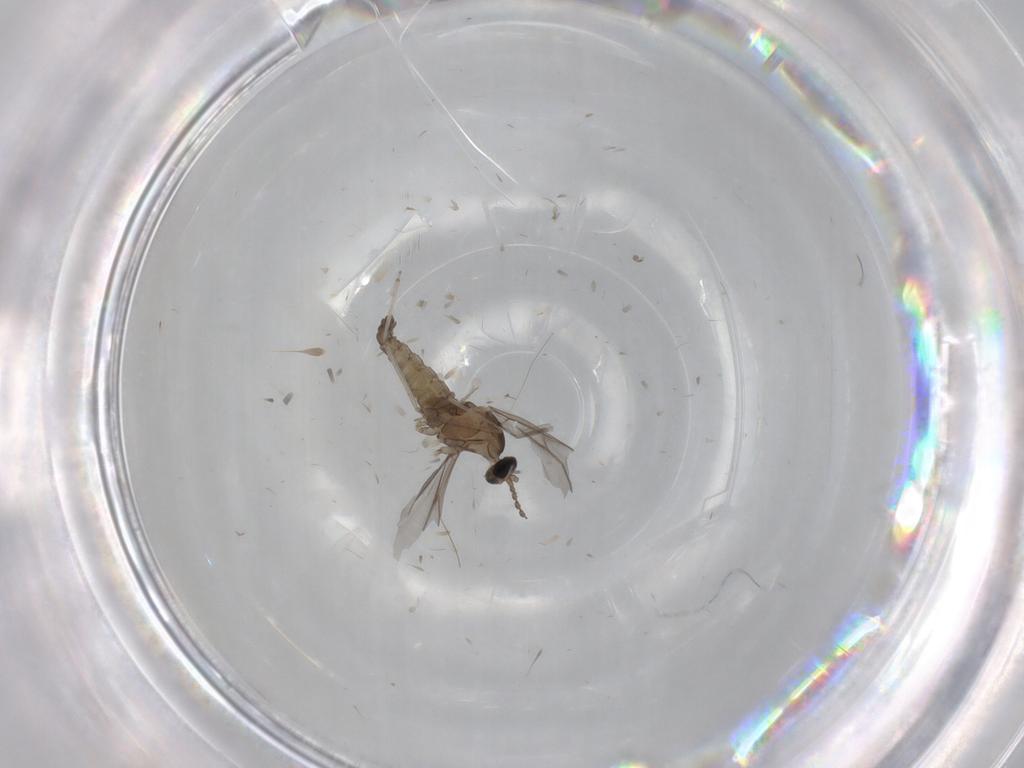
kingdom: Animalia
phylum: Arthropoda
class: Insecta
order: Diptera
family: Cecidomyiidae
